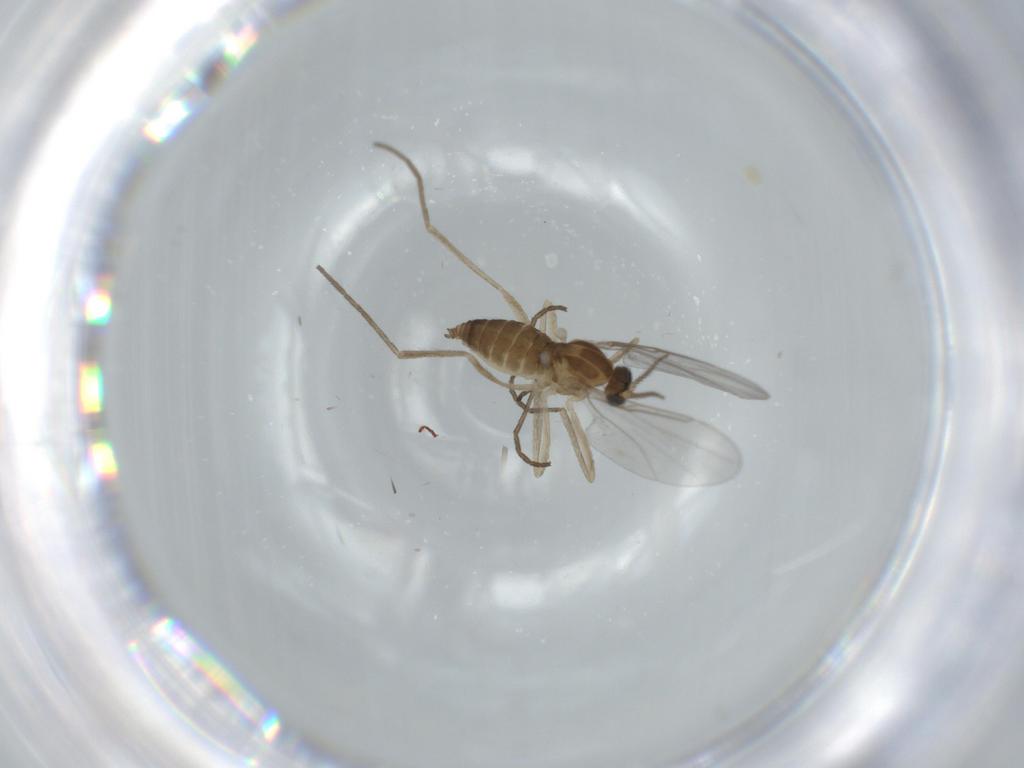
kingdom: Animalia
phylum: Arthropoda
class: Insecta
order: Diptera
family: Cecidomyiidae
